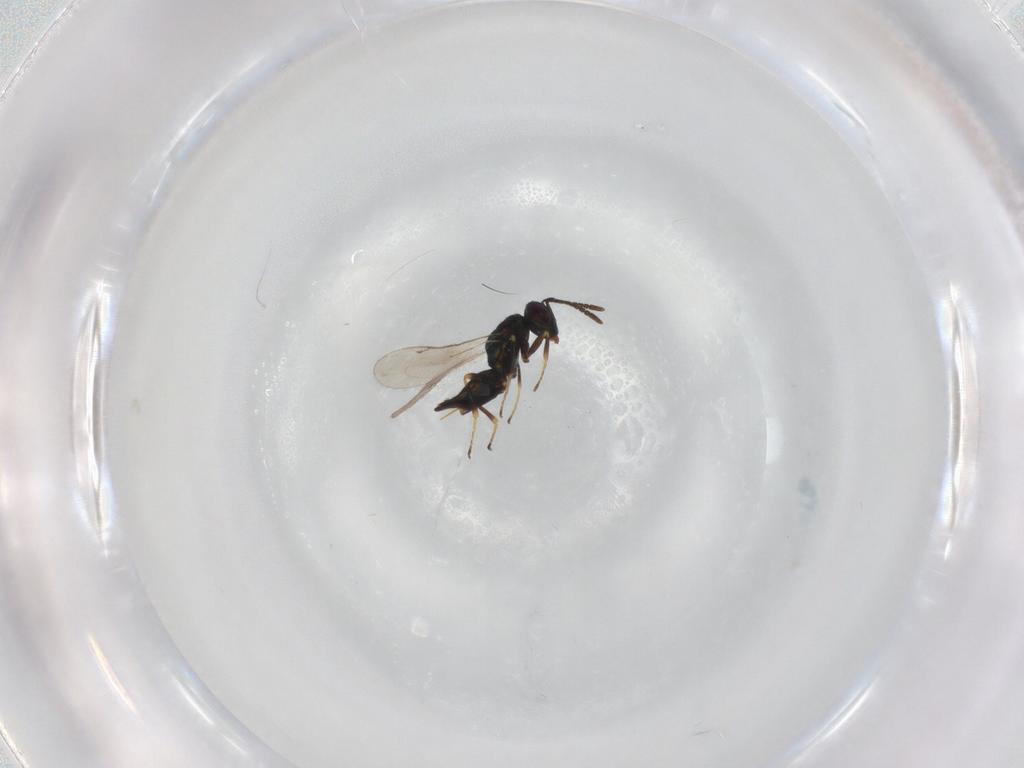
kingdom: Animalia
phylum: Arthropoda
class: Insecta
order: Hymenoptera
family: Pteromalidae
